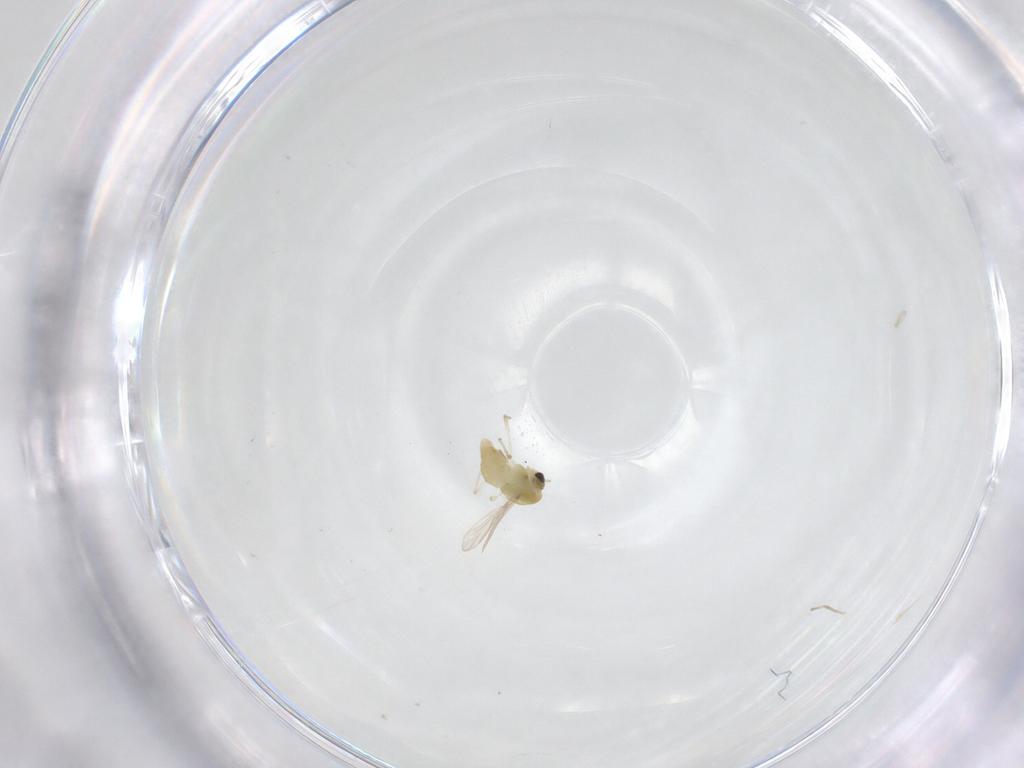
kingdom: Animalia
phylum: Arthropoda
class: Insecta
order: Diptera
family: Chironomidae
